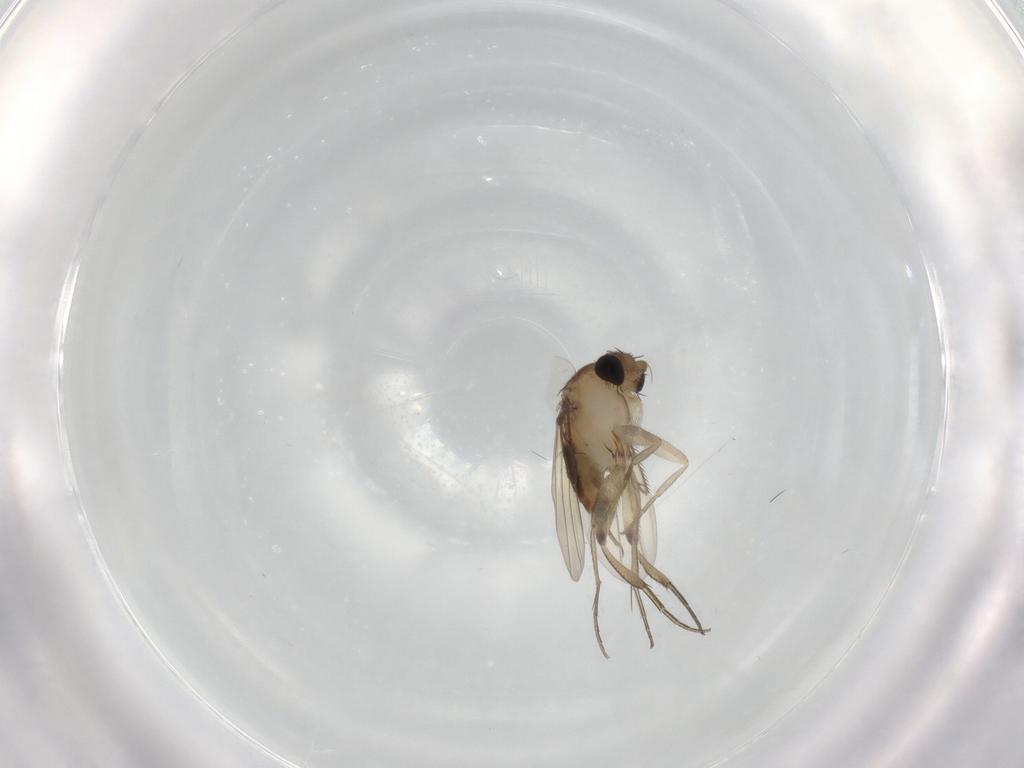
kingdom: Animalia
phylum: Arthropoda
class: Insecta
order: Diptera
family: Phoridae
